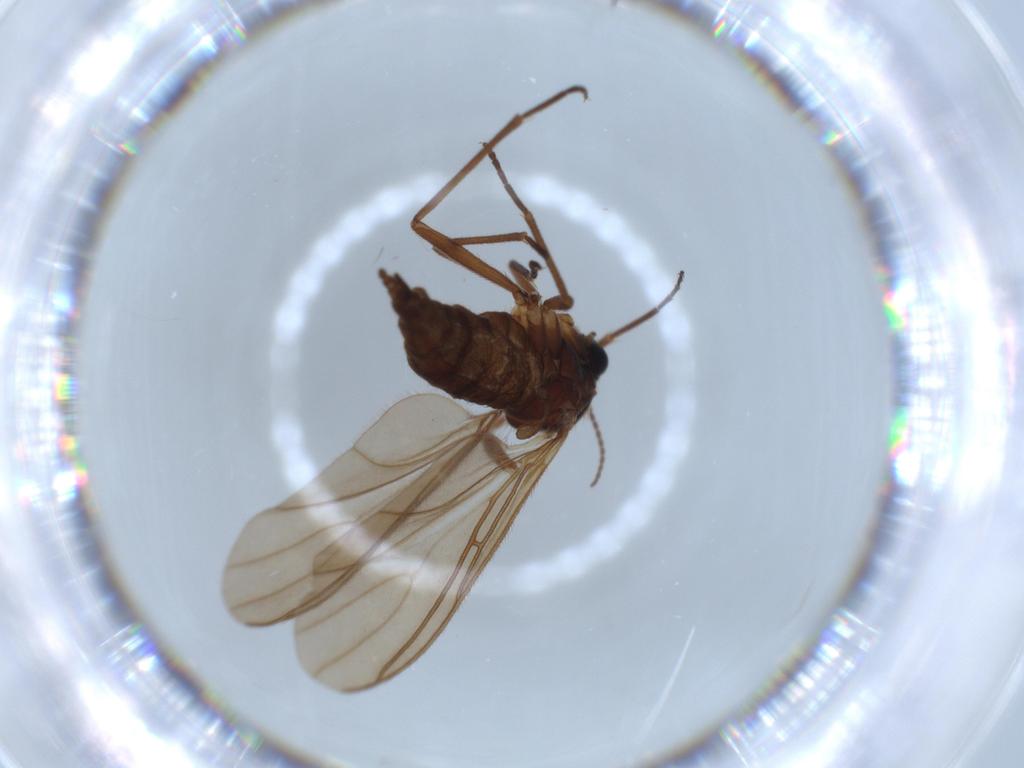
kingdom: Animalia
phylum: Arthropoda
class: Insecta
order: Diptera
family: Sciaridae
